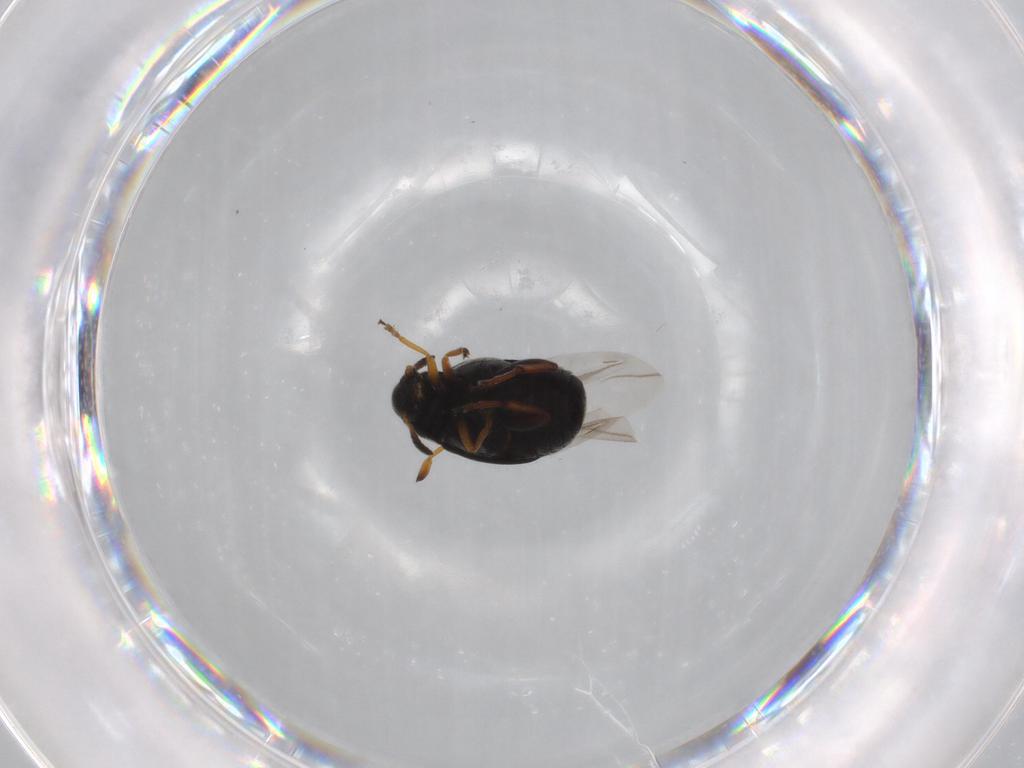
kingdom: Animalia
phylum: Arthropoda
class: Insecta
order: Coleoptera
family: Chrysomelidae
